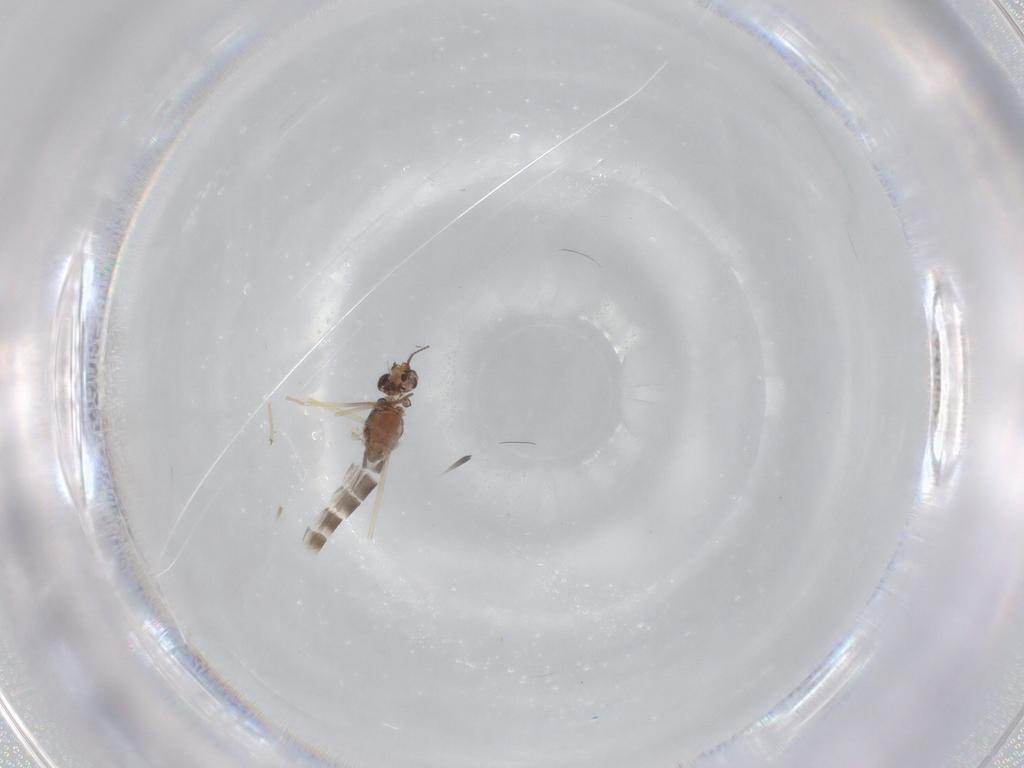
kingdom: Animalia
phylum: Arthropoda
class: Insecta
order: Diptera
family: Chironomidae
